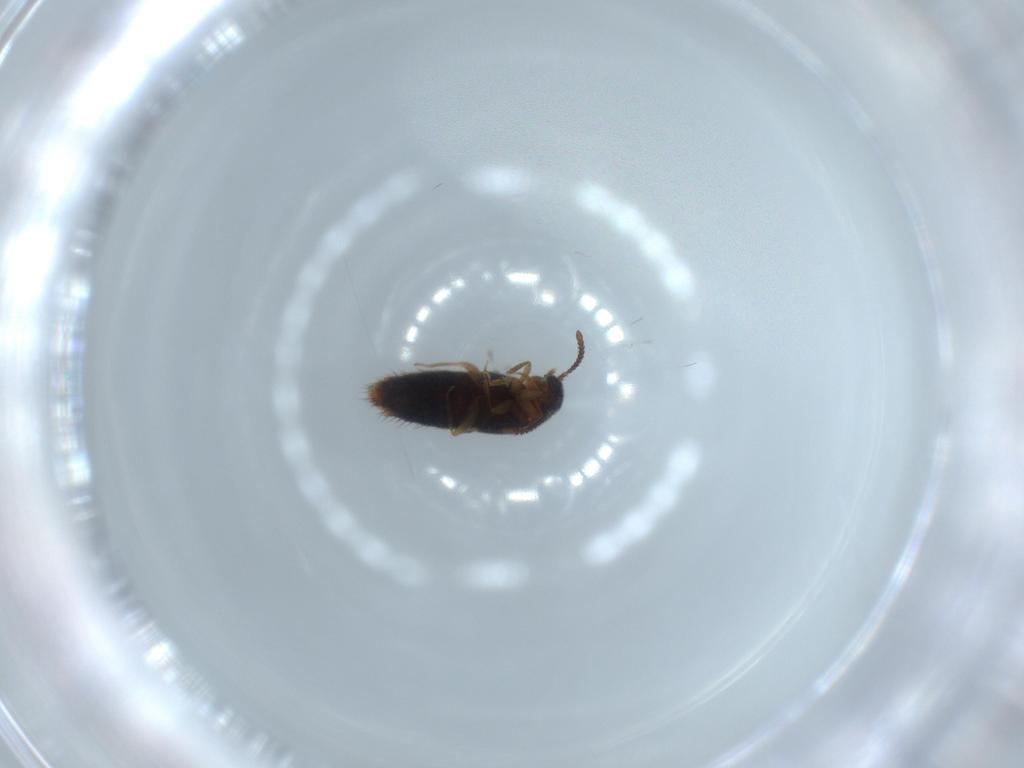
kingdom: Animalia
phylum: Arthropoda
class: Insecta
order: Coleoptera
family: Staphylinidae
